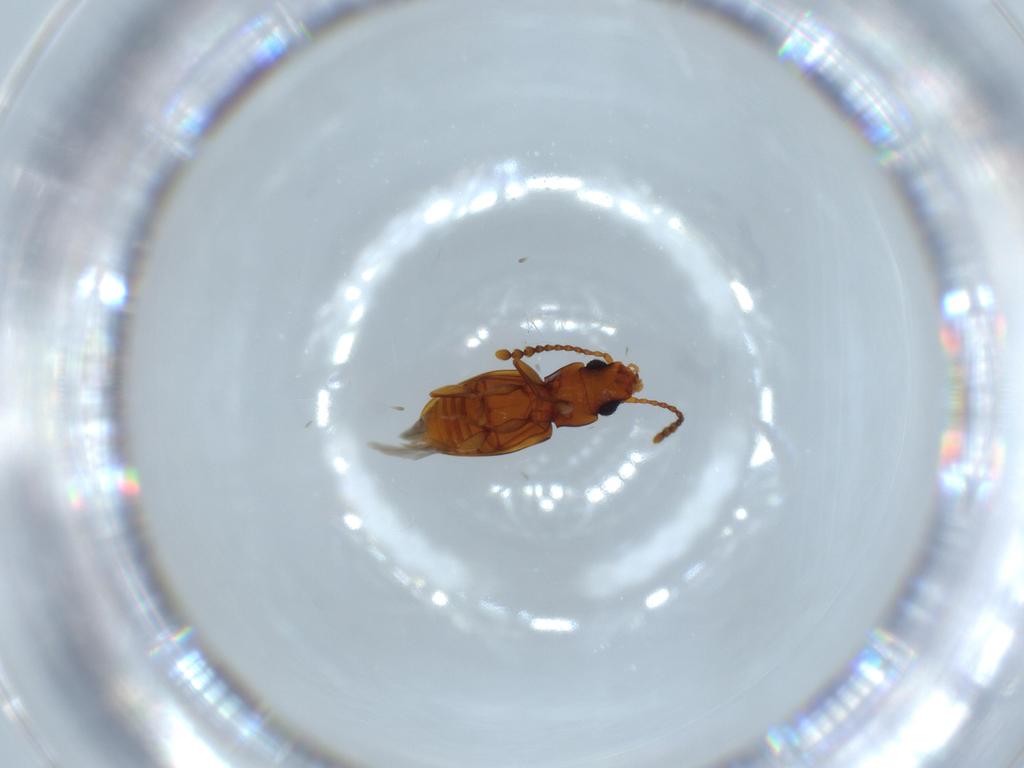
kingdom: Animalia
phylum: Arthropoda
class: Insecta
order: Coleoptera
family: Laemophloeidae
